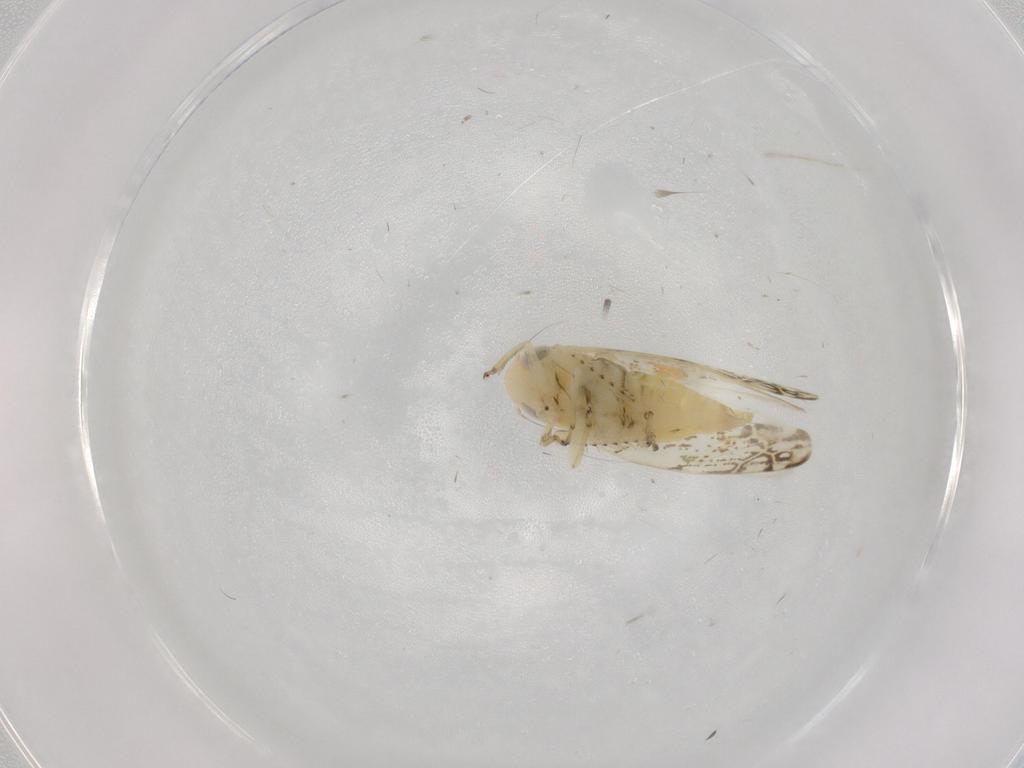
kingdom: Animalia
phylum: Arthropoda
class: Insecta
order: Hemiptera
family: Cicadellidae
